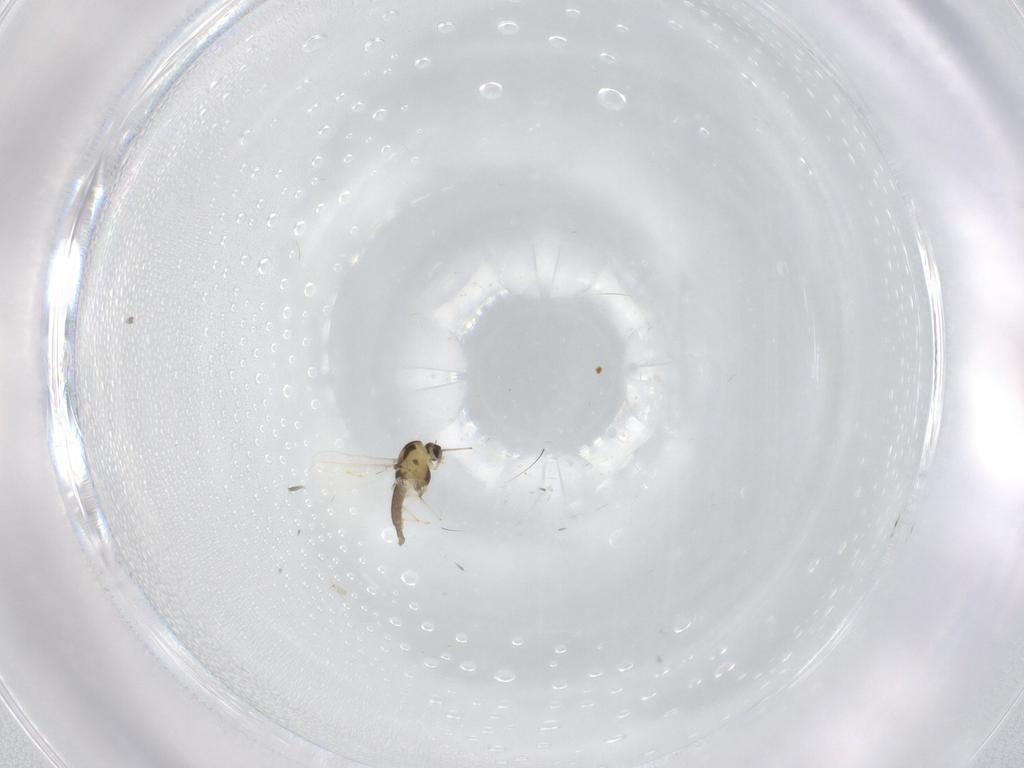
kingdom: Animalia
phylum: Arthropoda
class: Insecta
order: Diptera
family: Chironomidae
